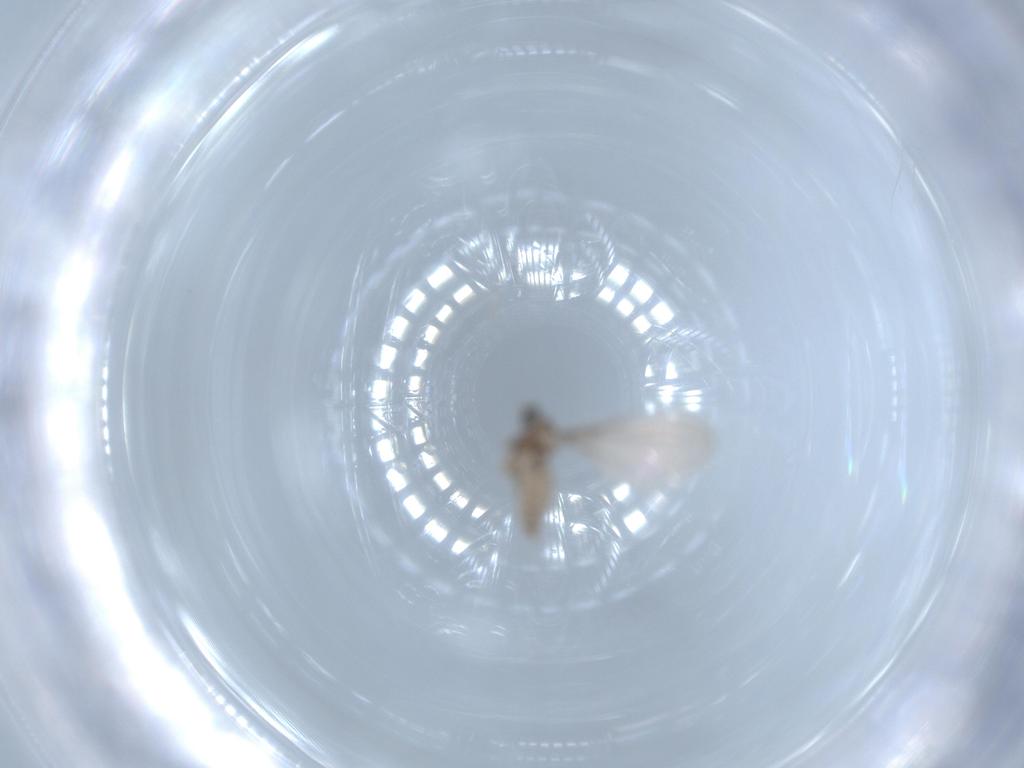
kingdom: Animalia
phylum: Arthropoda
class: Insecta
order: Diptera
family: Cecidomyiidae
